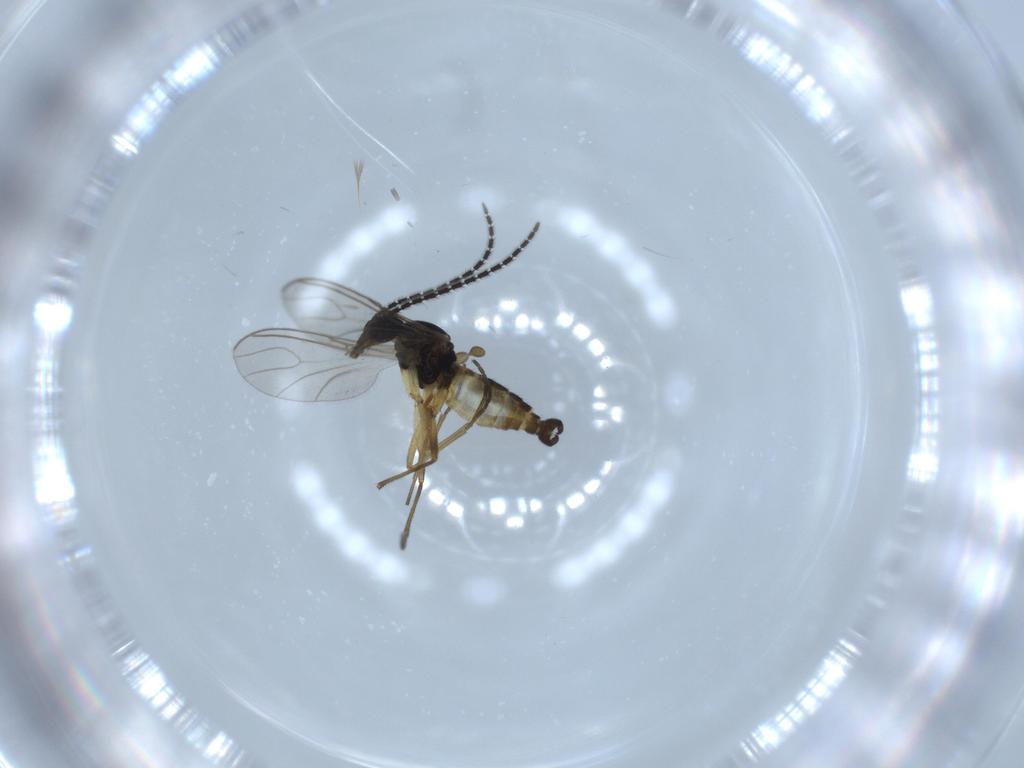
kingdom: Animalia
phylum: Arthropoda
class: Insecta
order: Diptera
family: Sciaridae
